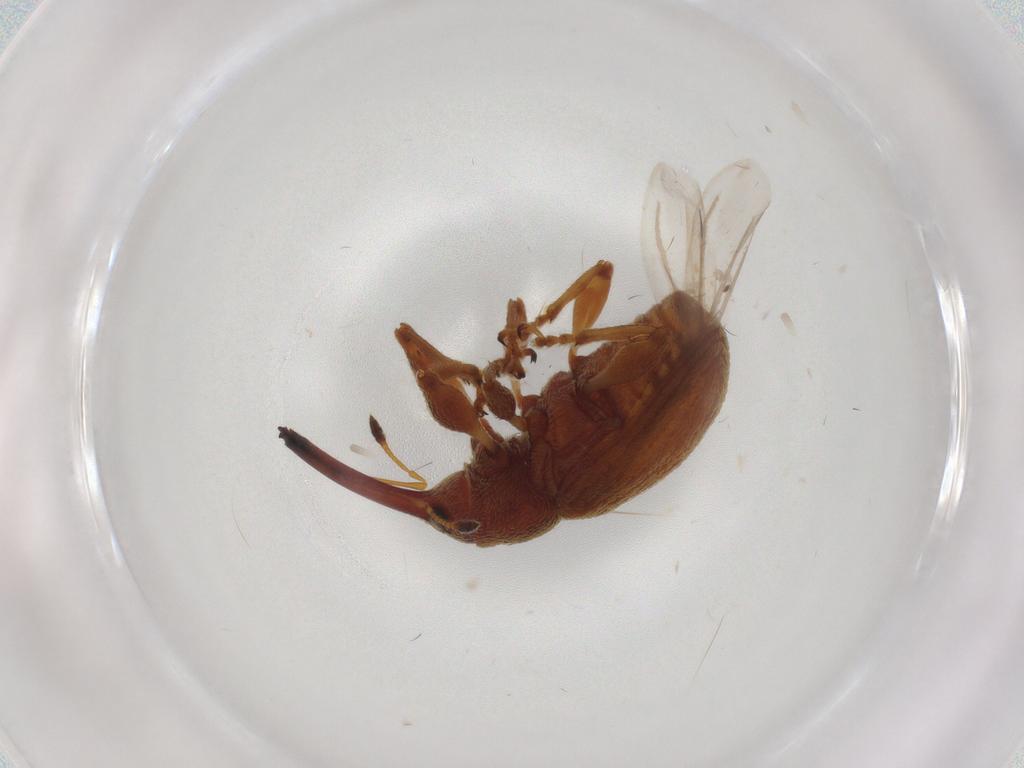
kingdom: Animalia
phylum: Arthropoda
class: Insecta
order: Coleoptera
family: Curculionidae
